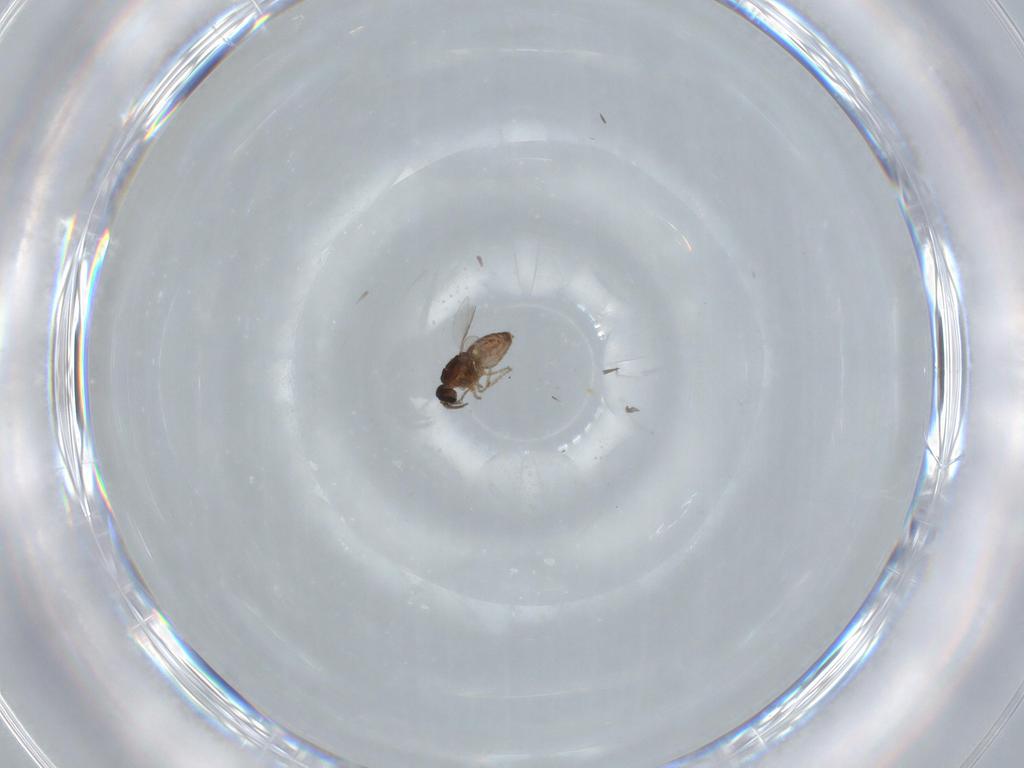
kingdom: Animalia
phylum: Arthropoda
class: Insecta
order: Diptera
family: Ceratopogonidae
